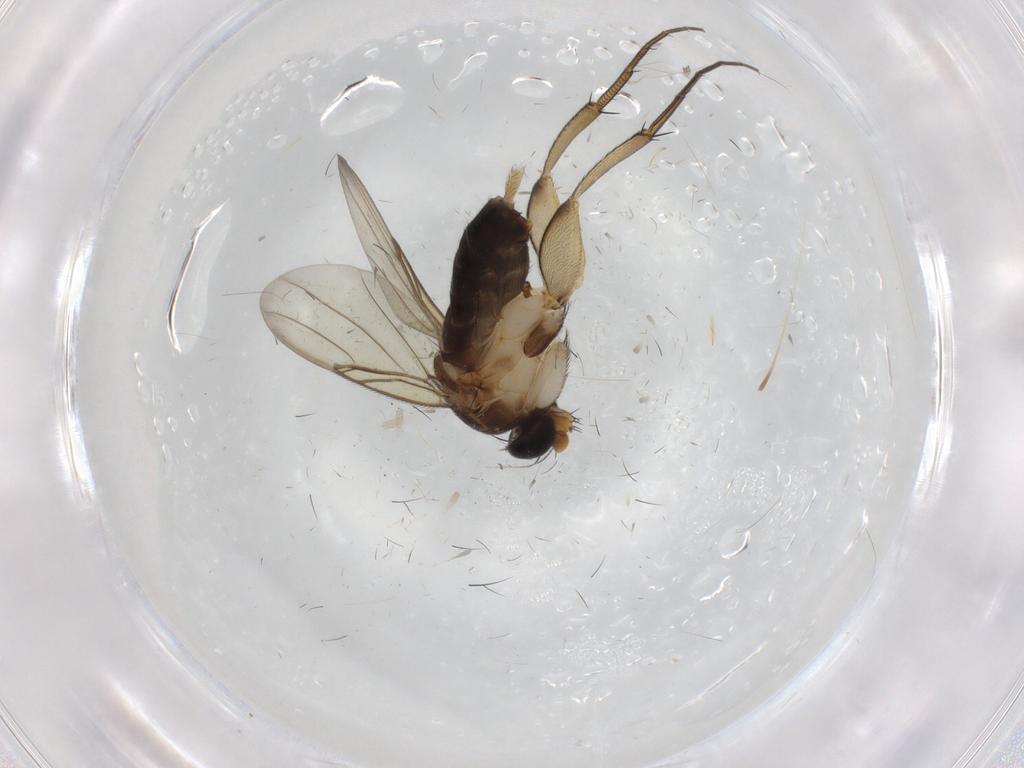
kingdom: Animalia
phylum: Arthropoda
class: Insecta
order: Diptera
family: Phoridae
